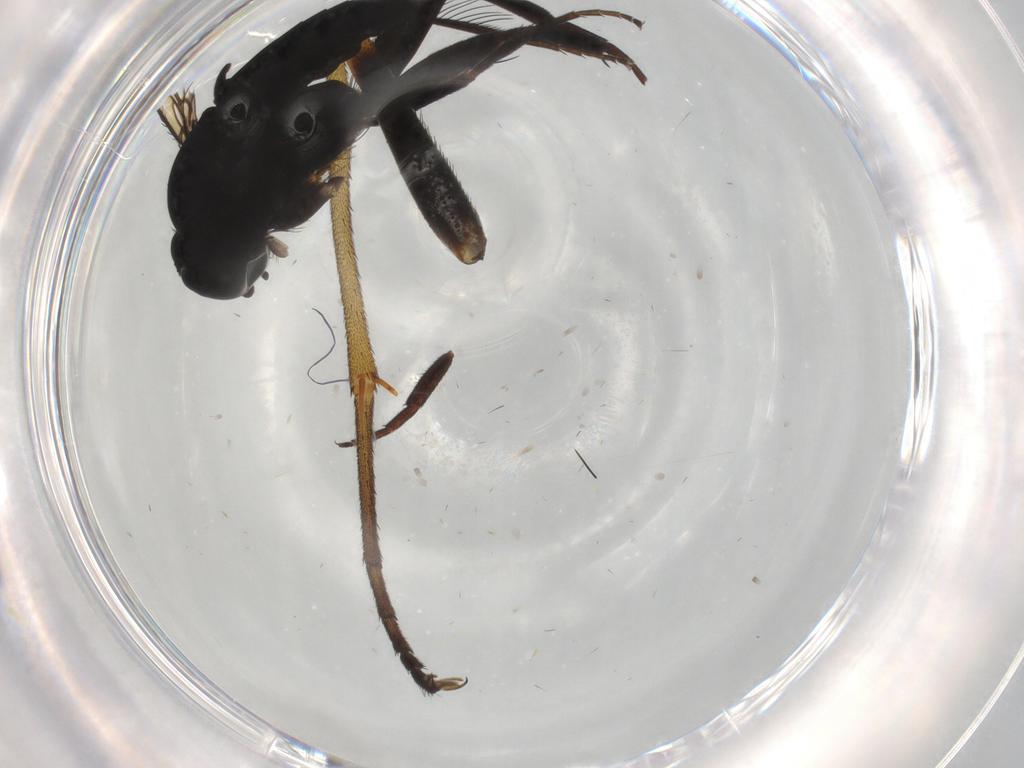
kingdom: Animalia
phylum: Arthropoda
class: Insecta
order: Diptera
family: Rhagionidae
